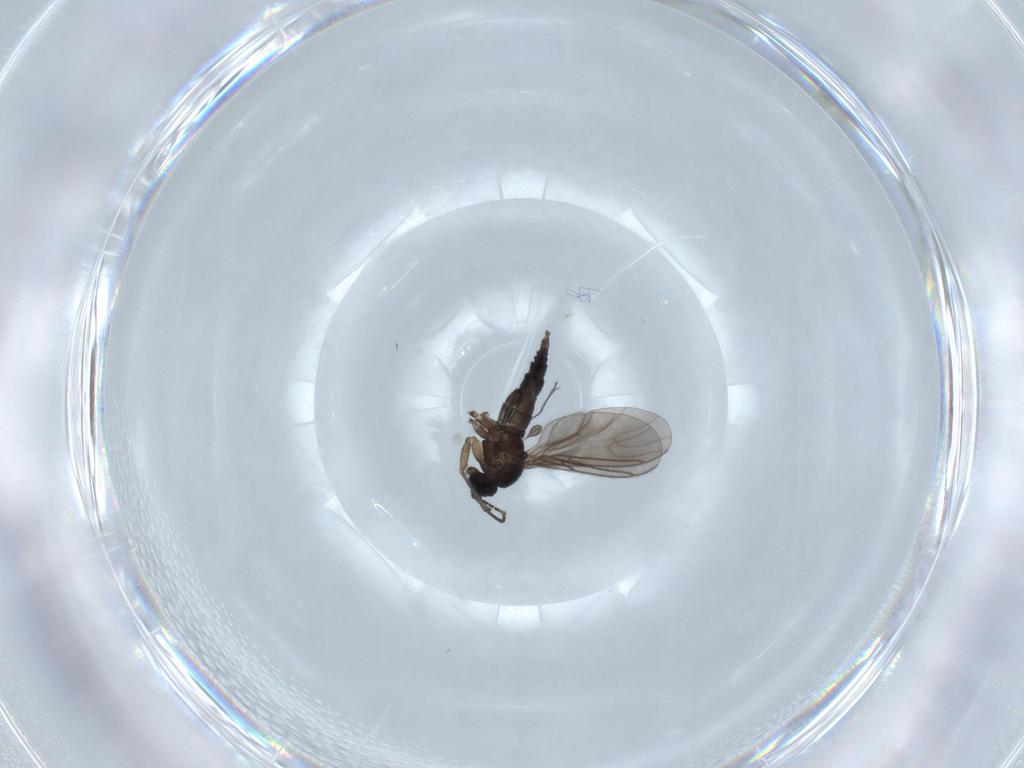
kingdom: Animalia
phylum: Arthropoda
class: Insecta
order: Diptera
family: Sciaridae
